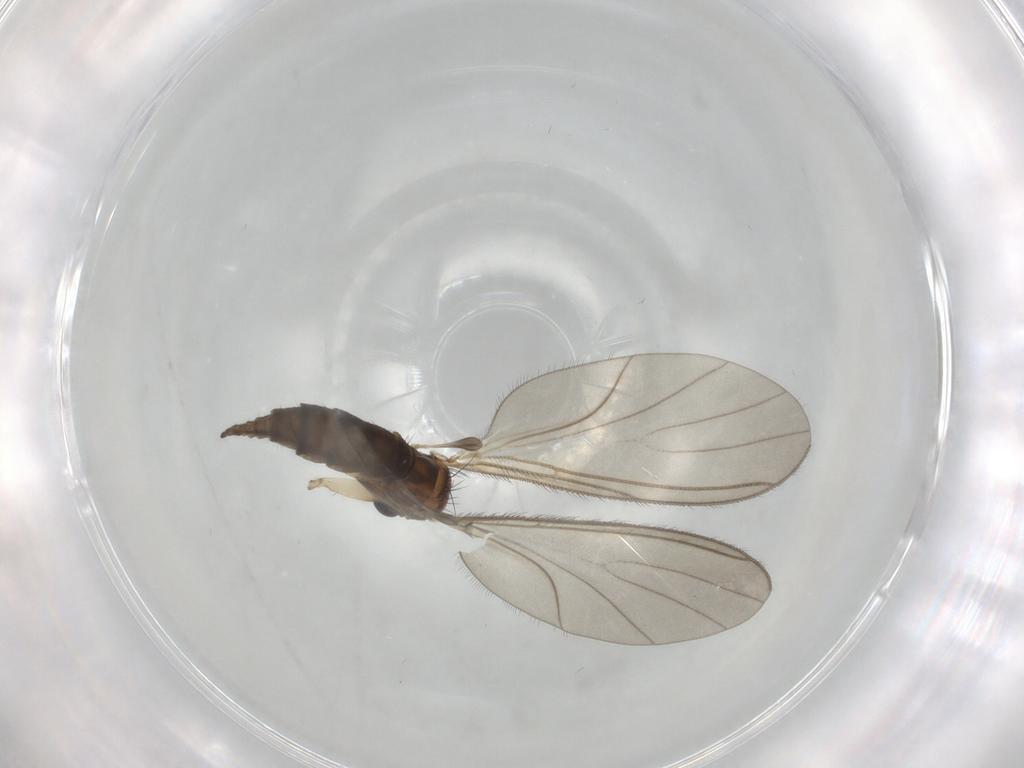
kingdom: Animalia
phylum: Arthropoda
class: Insecta
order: Diptera
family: Sciaridae
